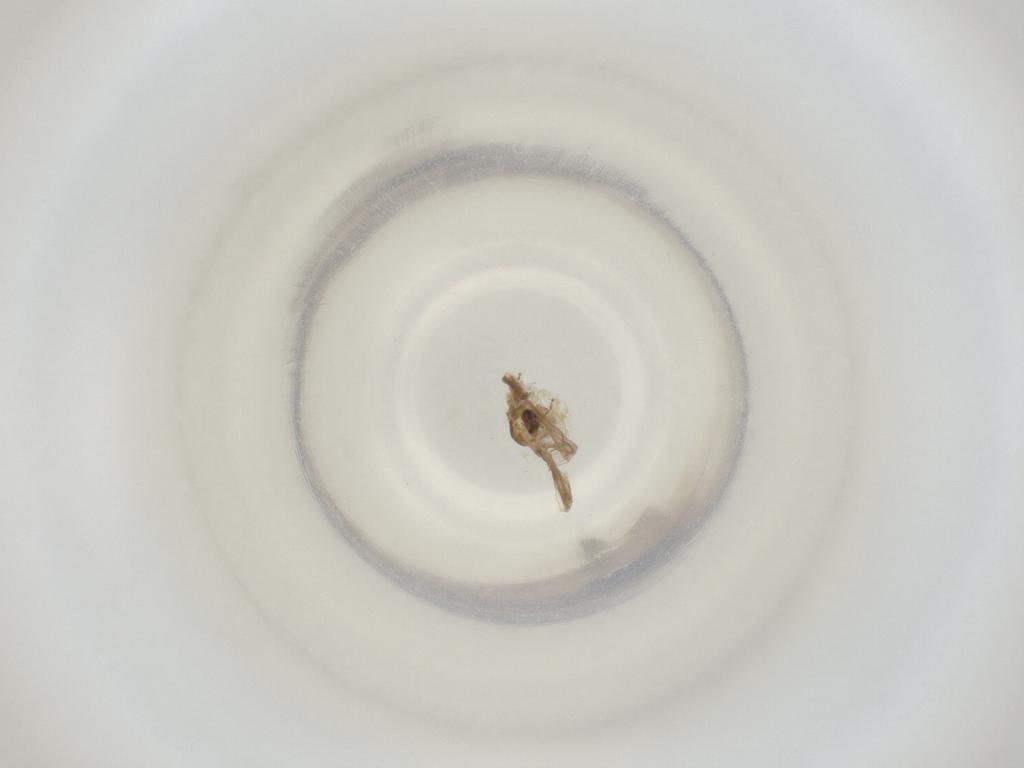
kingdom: Animalia
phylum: Arthropoda
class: Insecta
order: Diptera
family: Cecidomyiidae
